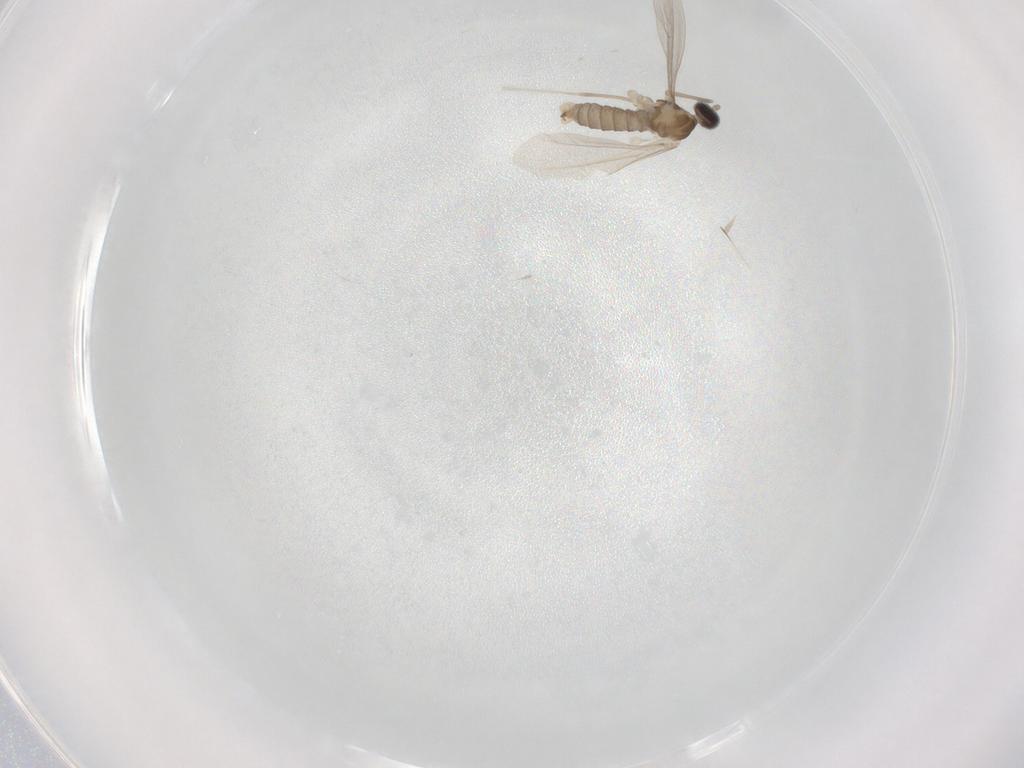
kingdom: Animalia
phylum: Arthropoda
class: Insecta
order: Diptera
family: Cecidomyiidae
